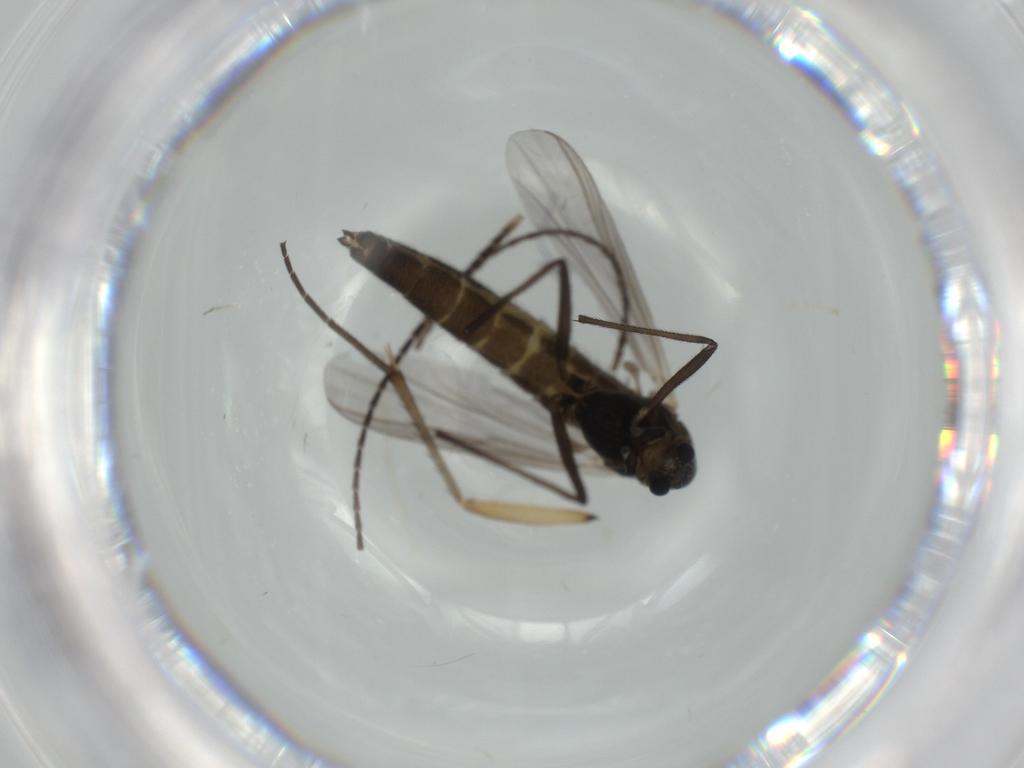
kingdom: Animalia
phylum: Arthropoda
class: Insecta
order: Diptera
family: Chironomidae
